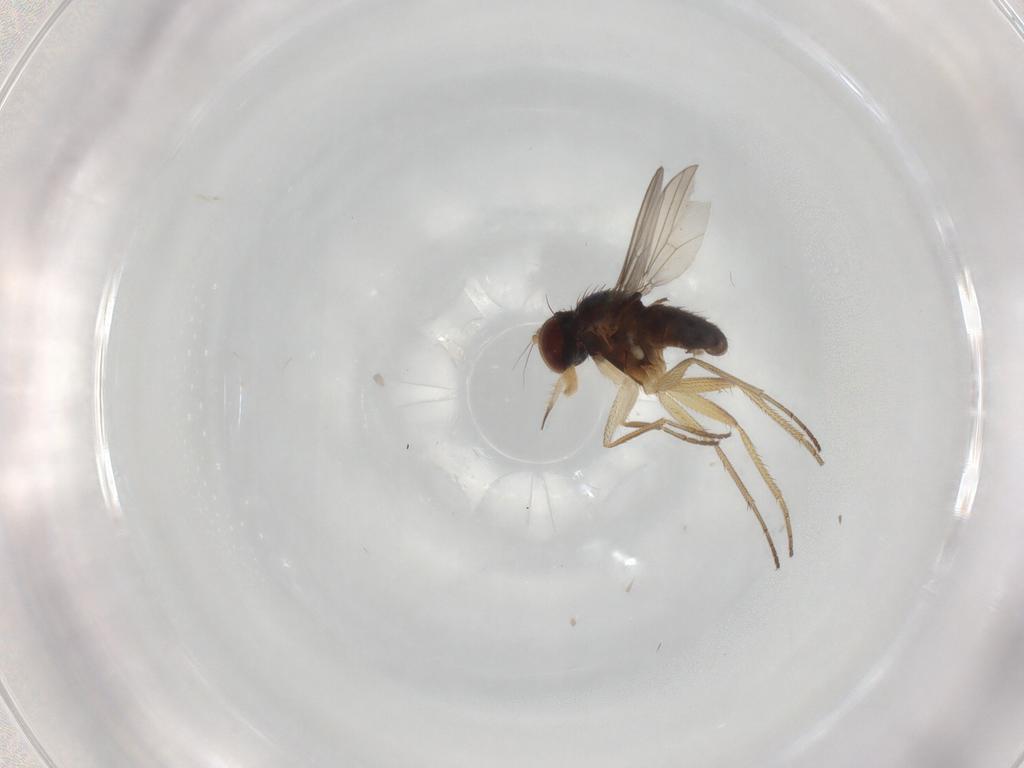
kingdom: Animalia
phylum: Arthropoda
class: Insecta
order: Diptera
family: Dolichopodidae
